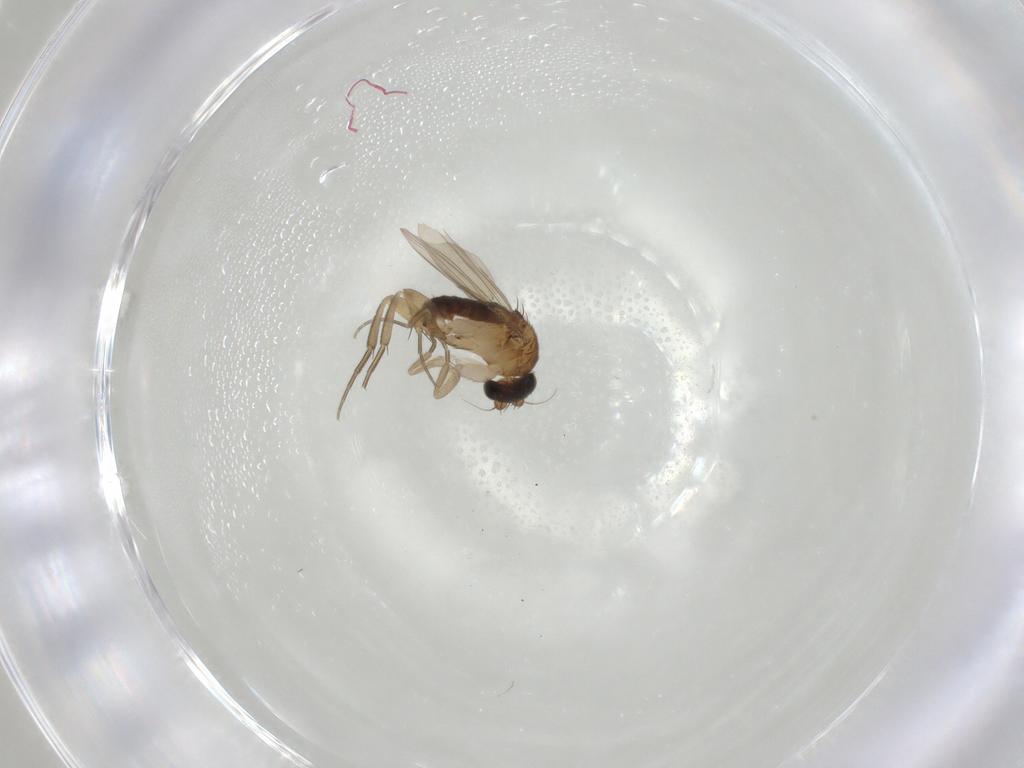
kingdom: Animalia
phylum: Arthropoda
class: Insecta
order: Diptera
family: Phoridae
